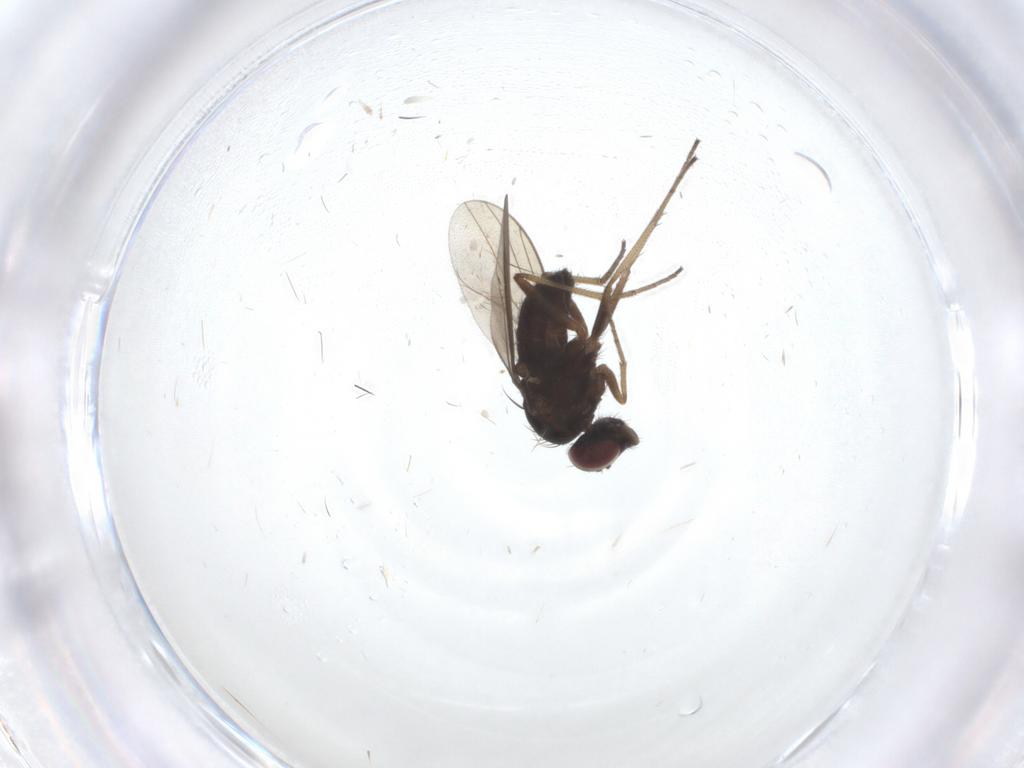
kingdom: Animalia
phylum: Arthropoda
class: Insecta
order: Diptera
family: Dolichopodidae
